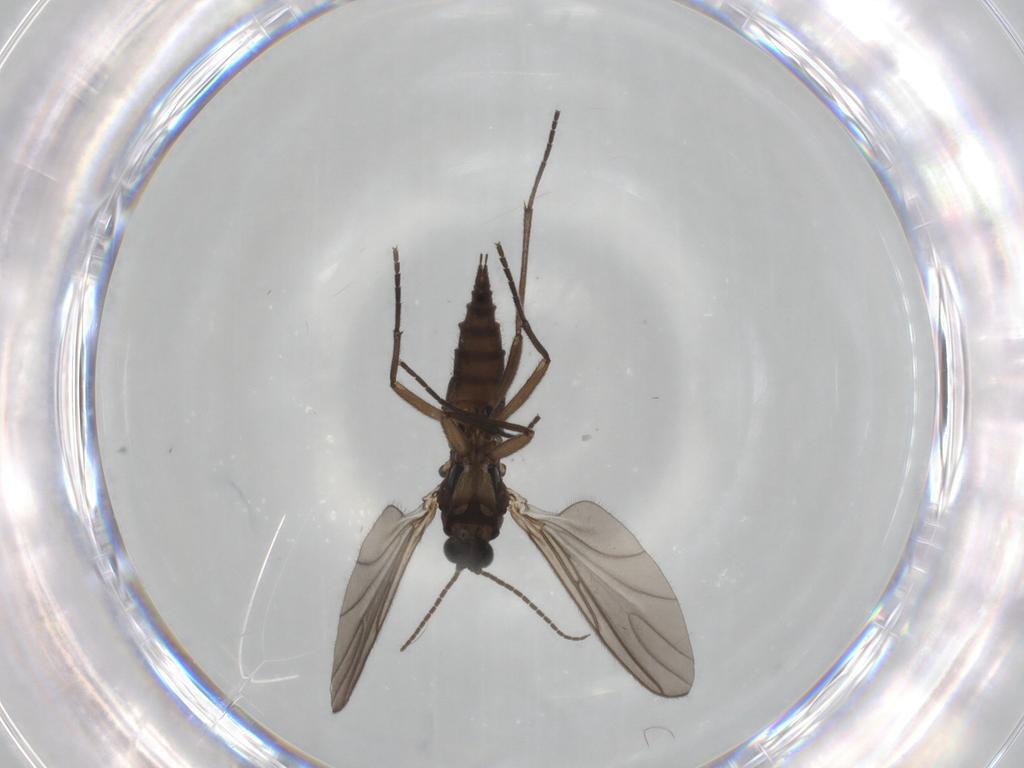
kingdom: Animalia
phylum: Arthropoda
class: Insecta
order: Diptera
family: Sciaridae
